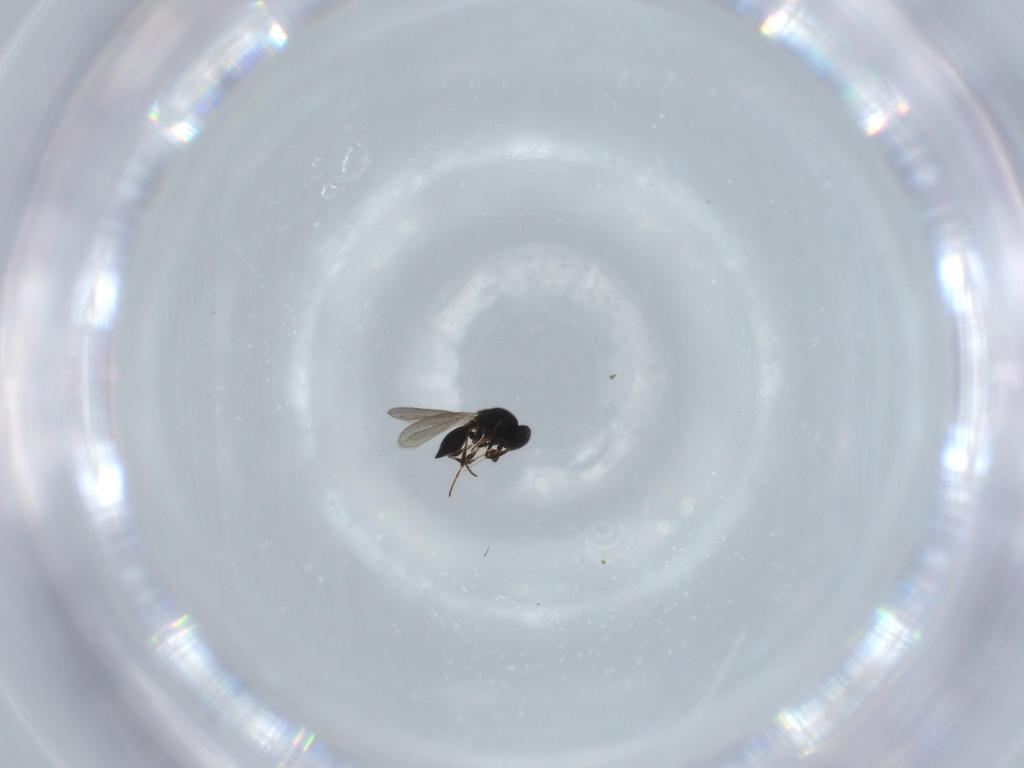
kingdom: Animalia
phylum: Arthropoda
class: Insecta
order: Hymenoptera
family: Platygastridae
